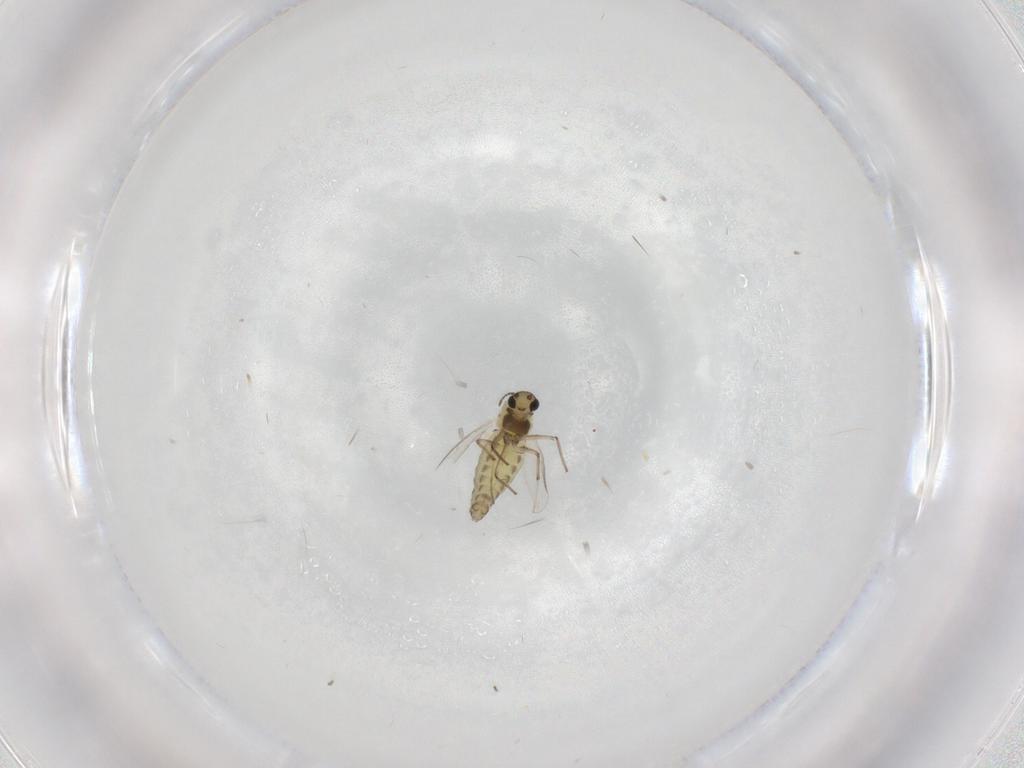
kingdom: Animalia
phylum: Arthropoda
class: Insecta
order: Diptera
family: Chironomidae
